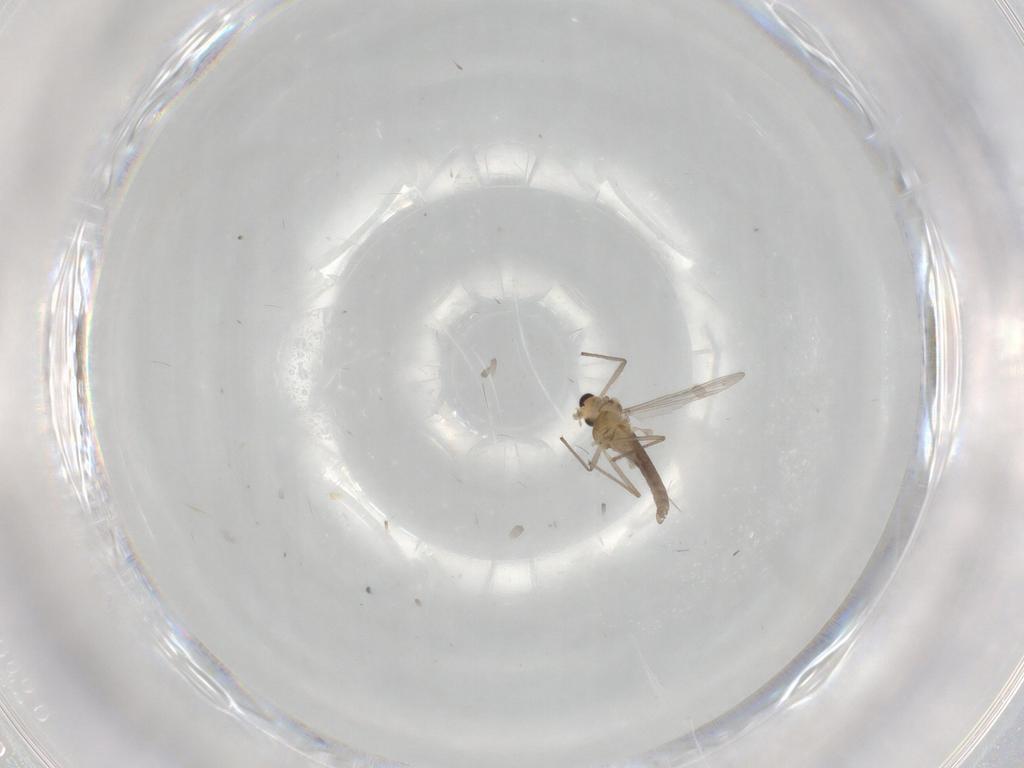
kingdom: Animalia
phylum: Arthropoda
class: Insecta
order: Diptera
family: Chironomidae
